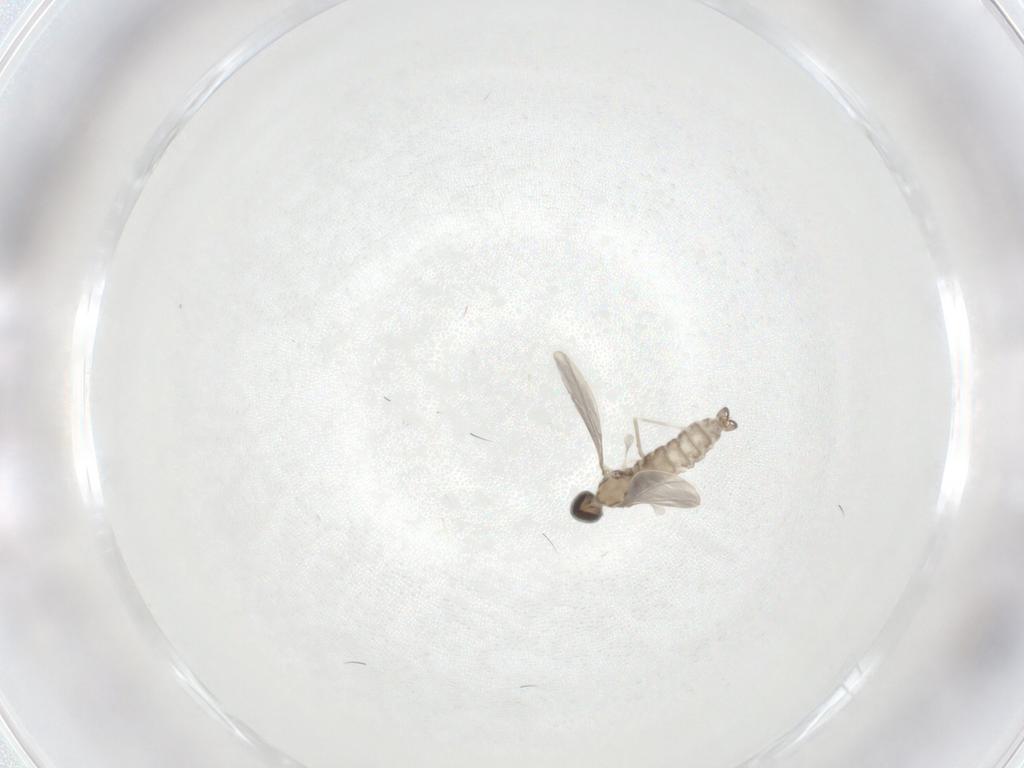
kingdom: Animalia
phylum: Arthropoda
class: Insecta
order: Diptera
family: Cecidomyiidae
